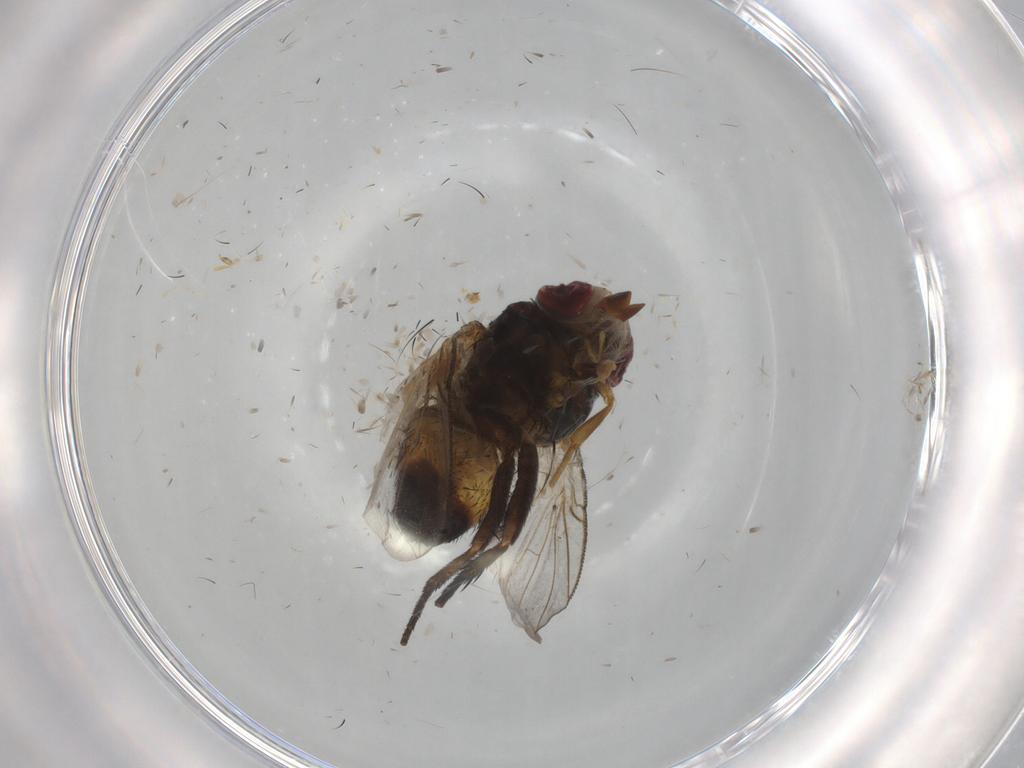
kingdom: Animalia
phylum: Arthropoda
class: Insecta
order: Diptera
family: Tachinidae
